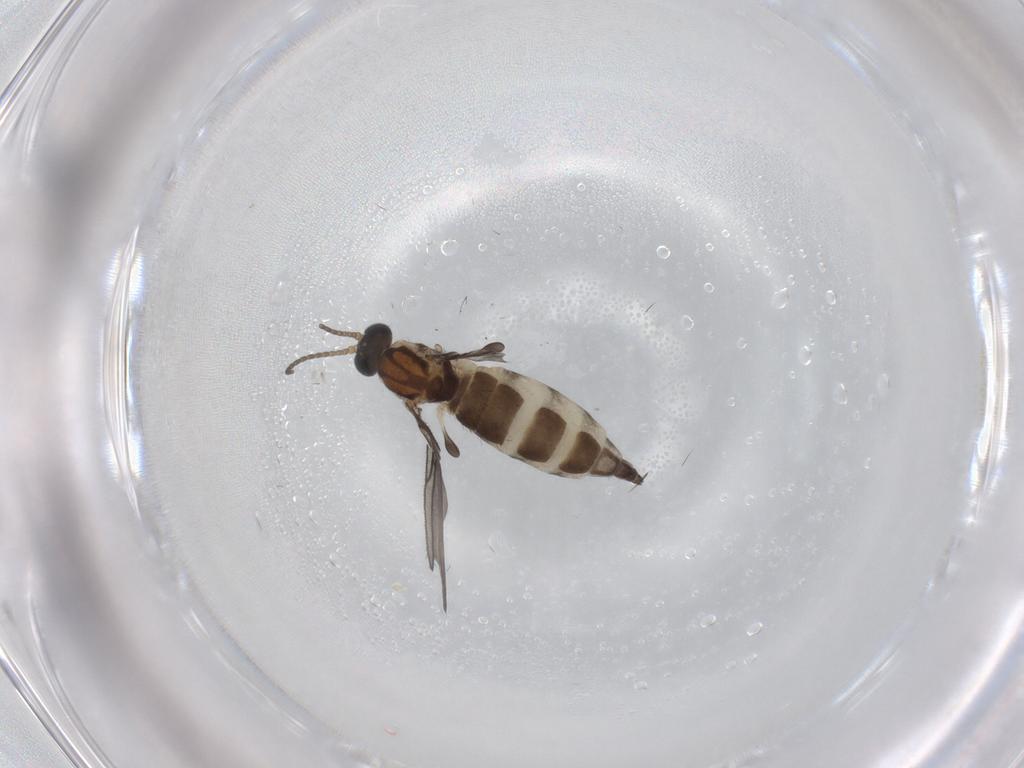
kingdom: Animalia
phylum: Arthropoda
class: Insecta
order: Diptera
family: Sciaridae
